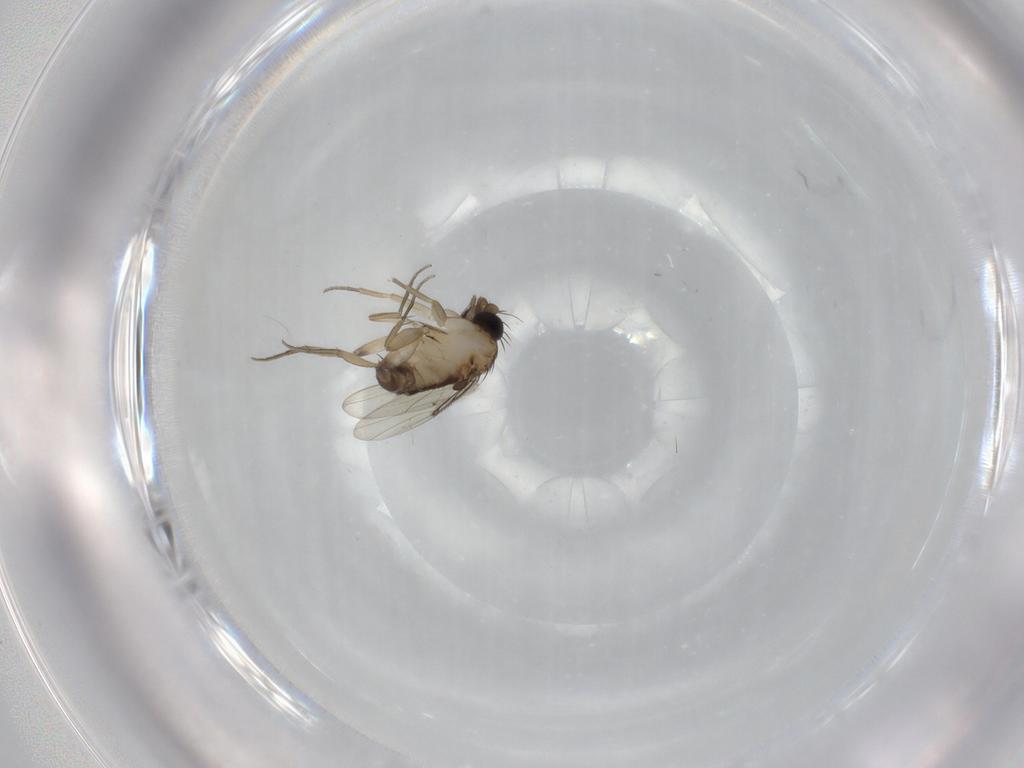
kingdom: Animalia
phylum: Arthropoda
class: Insecta
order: Diptera
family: Phoridae
